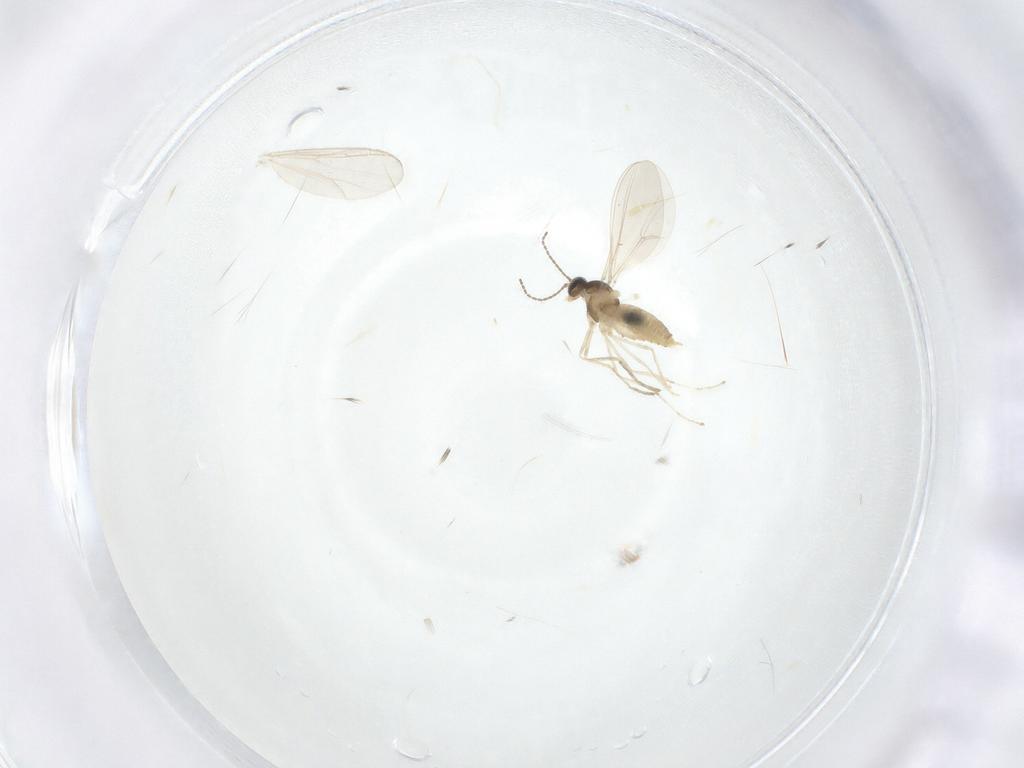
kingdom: Animalia
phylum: Arthropoda
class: Insecta
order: Diptera
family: Chironomidae
